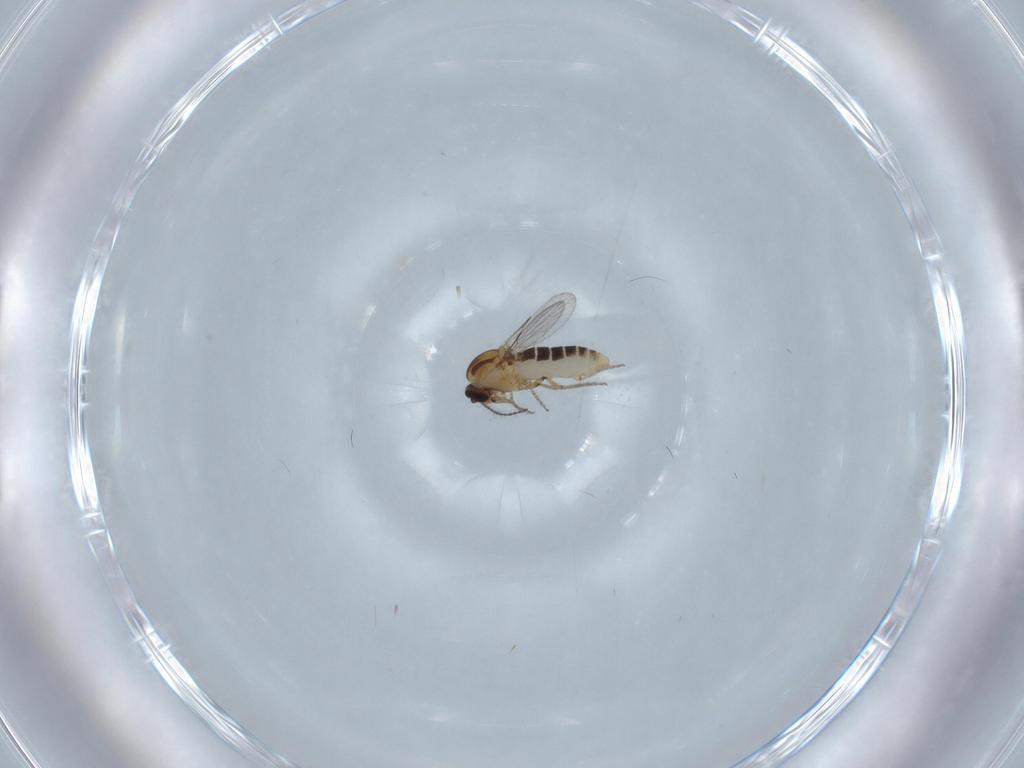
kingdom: Animalia
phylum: Arthropoda
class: Insecta
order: Diptera
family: Ceratopogonidae
